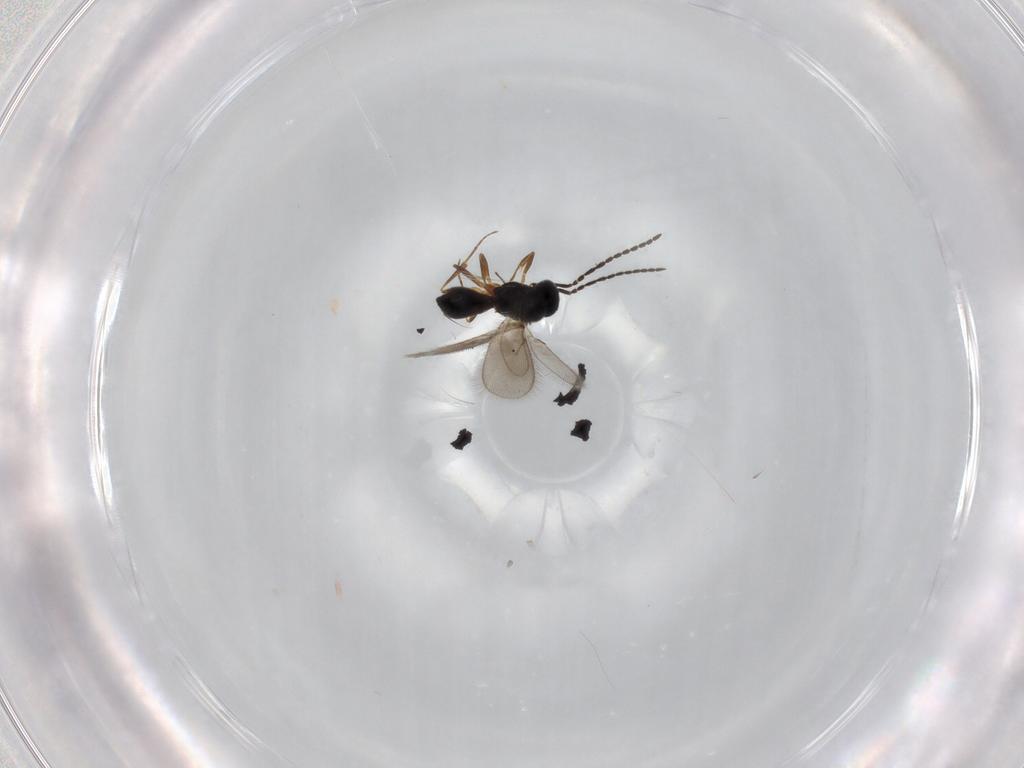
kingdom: Animalia
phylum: Arthropoda
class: Insecta
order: Hymenoptera
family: Scelionidae
